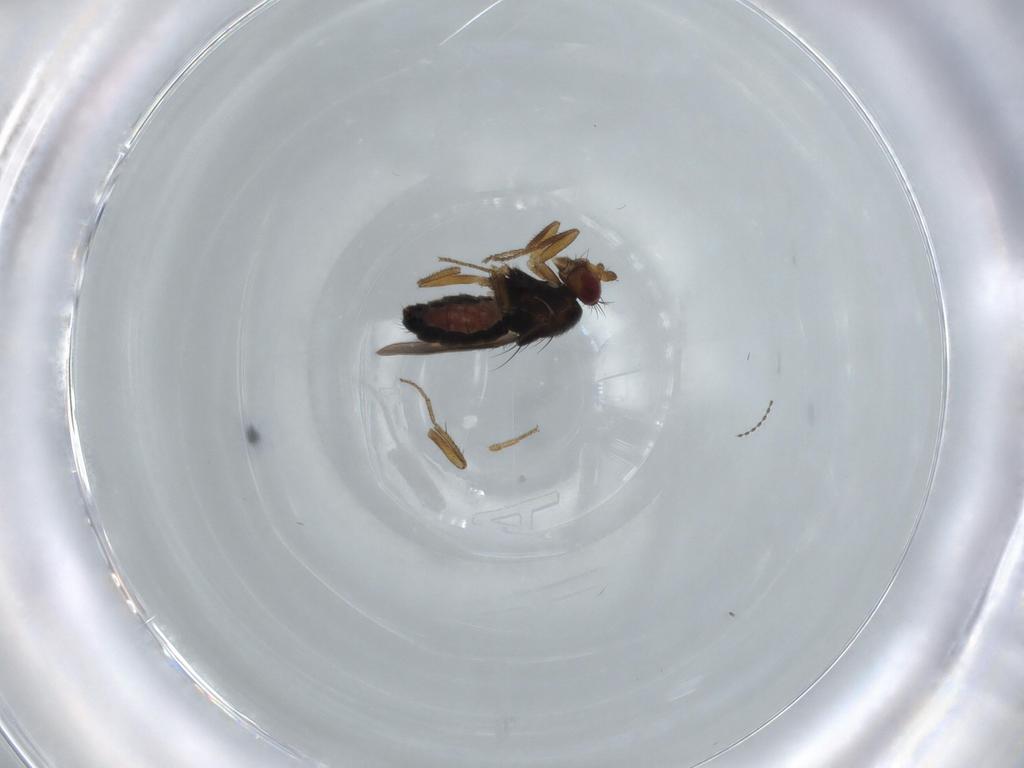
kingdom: Animalia
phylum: Arthropoda
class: Insecta
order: Diptera
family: Sphaeroceridae
